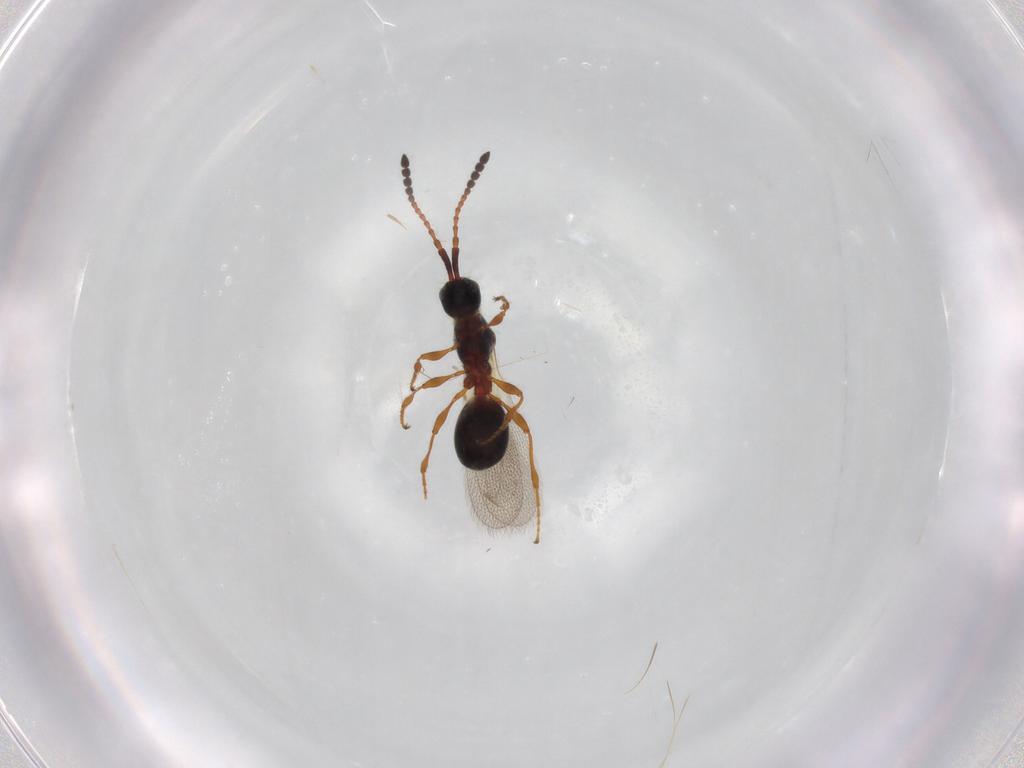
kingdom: Animalia
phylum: Arthropoda
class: Insecta
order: Hymenoptera
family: Eulophidae
